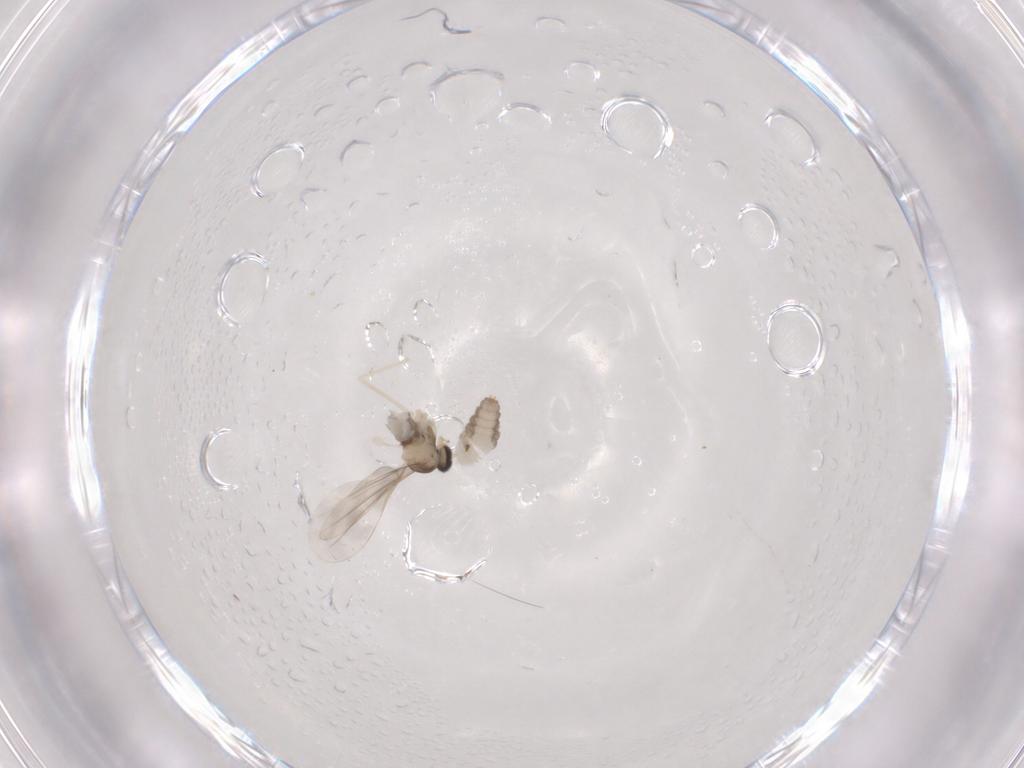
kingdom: Animalia
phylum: Arthropoda
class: Insecta
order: Diptera
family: Cecidomyiidae
